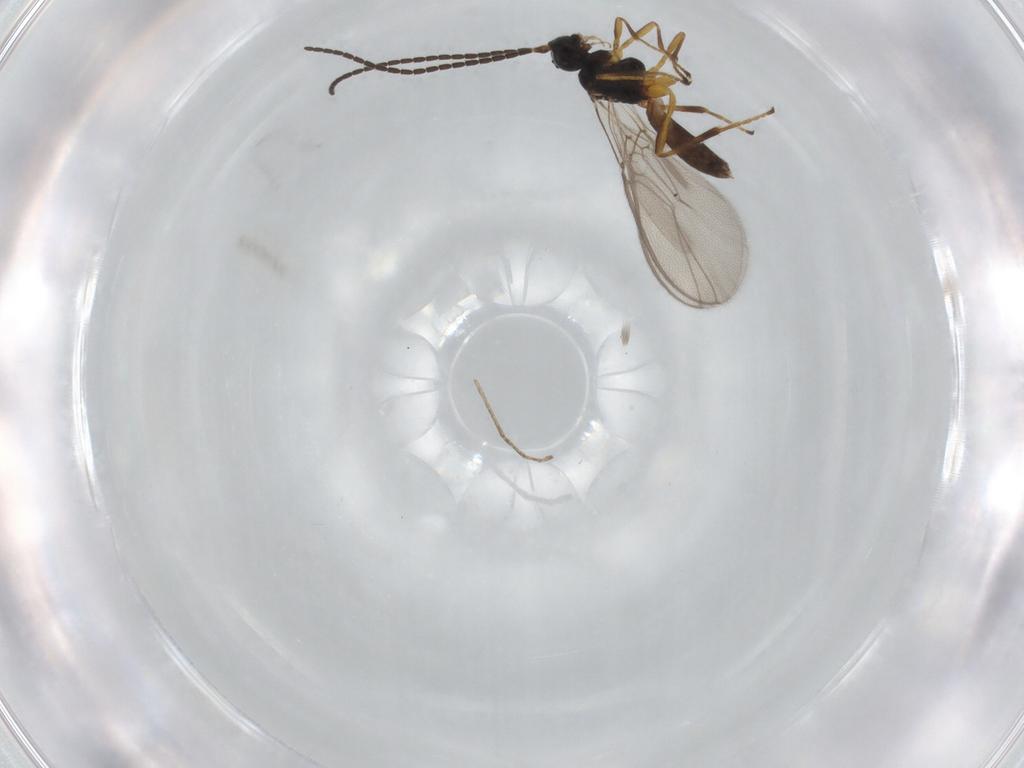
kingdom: Animalia
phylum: Arthropoda
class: Insecta
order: Hymenoptera
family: Braconidae
